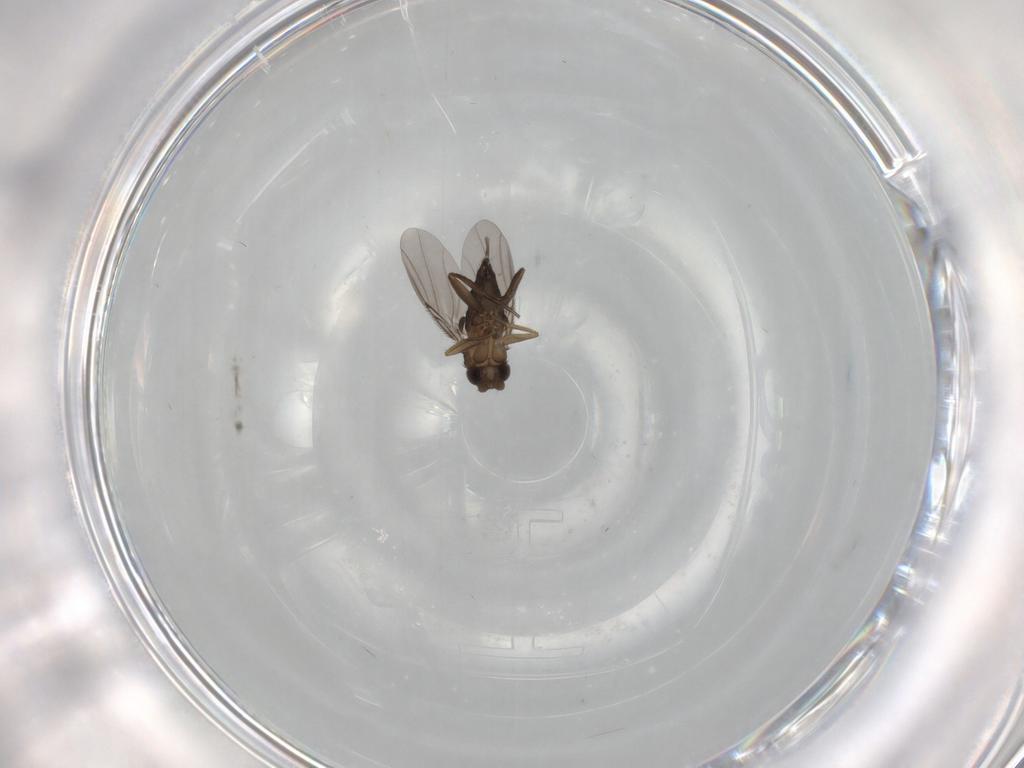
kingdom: Animalia
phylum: Arthropoda
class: Insecta
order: Diptera
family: Phoridae
